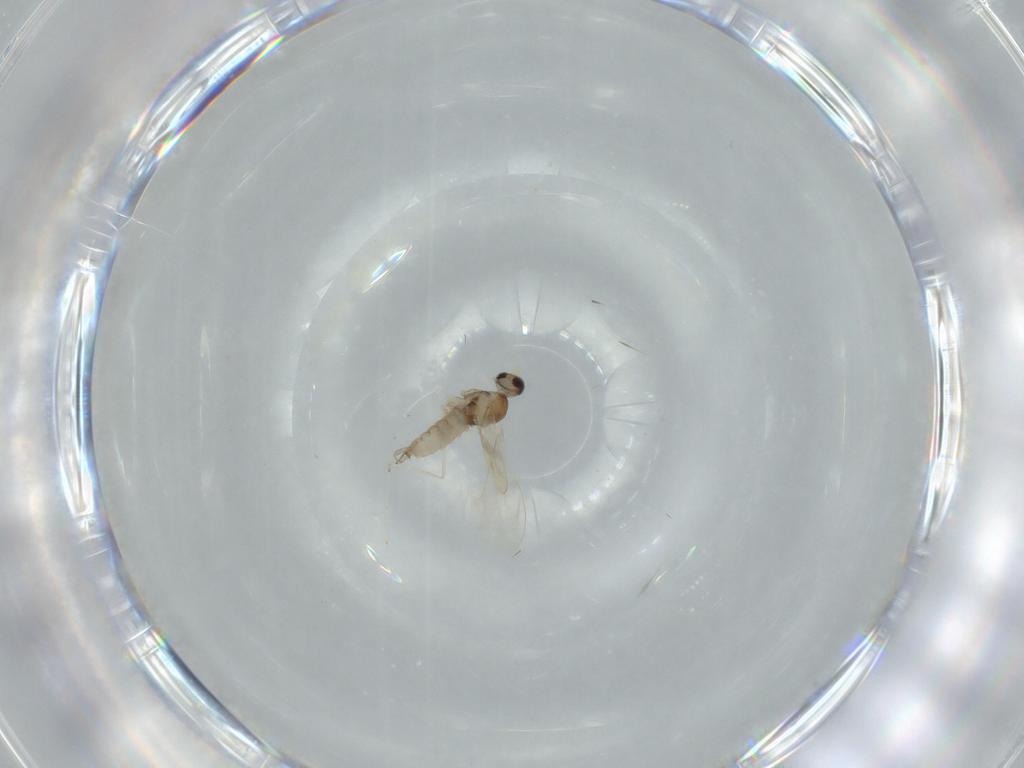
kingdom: Animalia
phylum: Arthropoda
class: Insecta
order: Diptera
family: Cecidomyiidae
